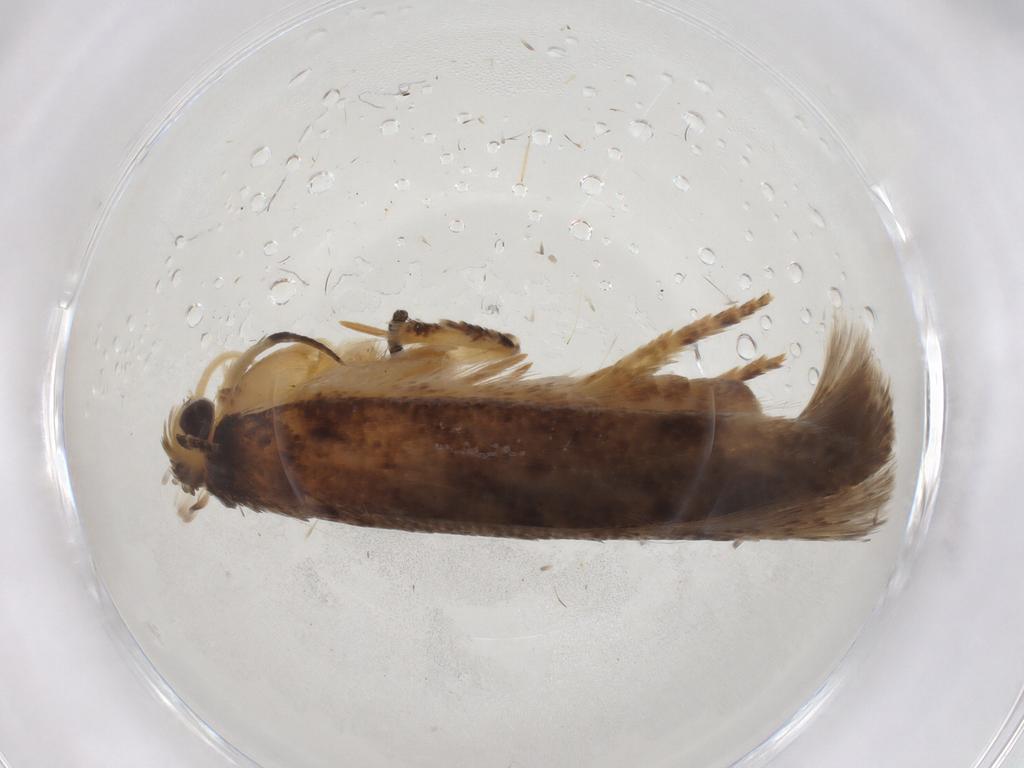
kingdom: Animalia
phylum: Arthropoda
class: Insecta
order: Lepidoptera
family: Gelechiidae
